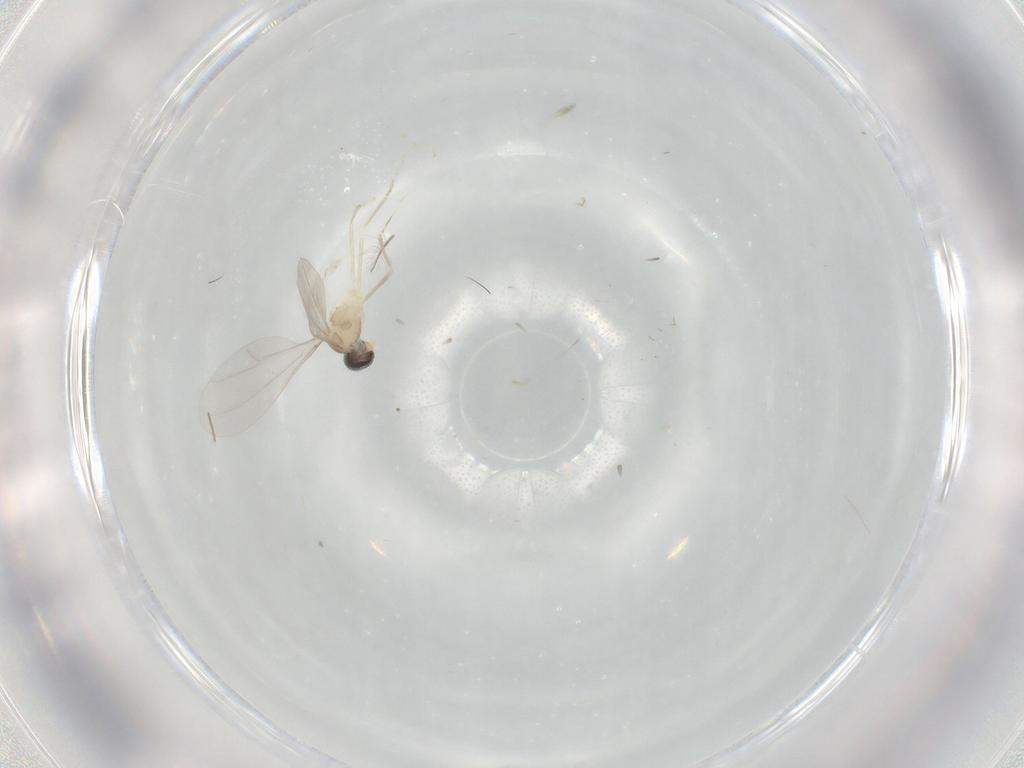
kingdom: Animalia
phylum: Arthropoda
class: Insecta
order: Diptera
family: Cecidomyiidae
